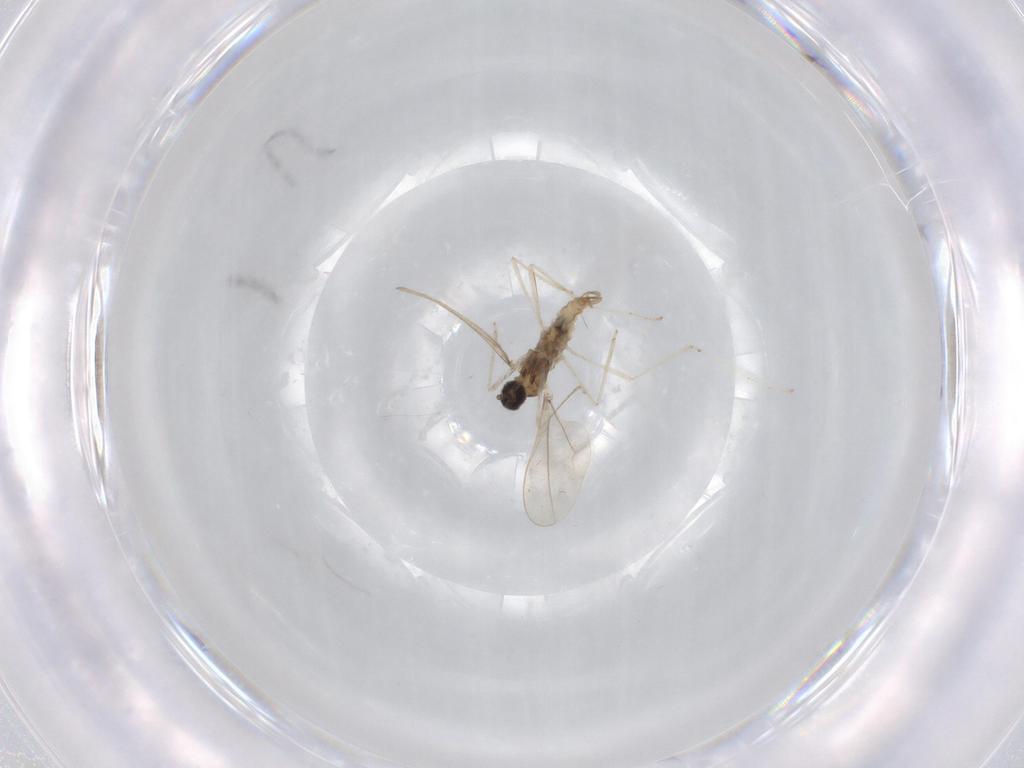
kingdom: Animalia
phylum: Arthropoda
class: Insecta
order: Diptera
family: Cecidomyiidae
